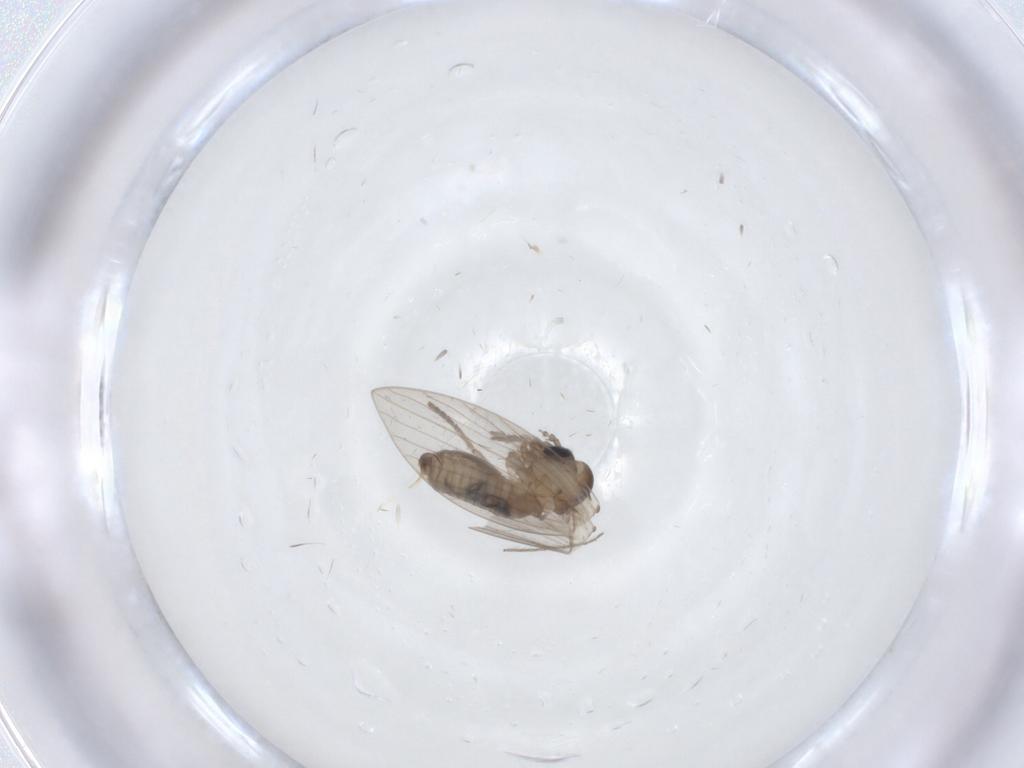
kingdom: Animalia
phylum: Arthropoda
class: Insecta
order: Diptera
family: Psychodidae
